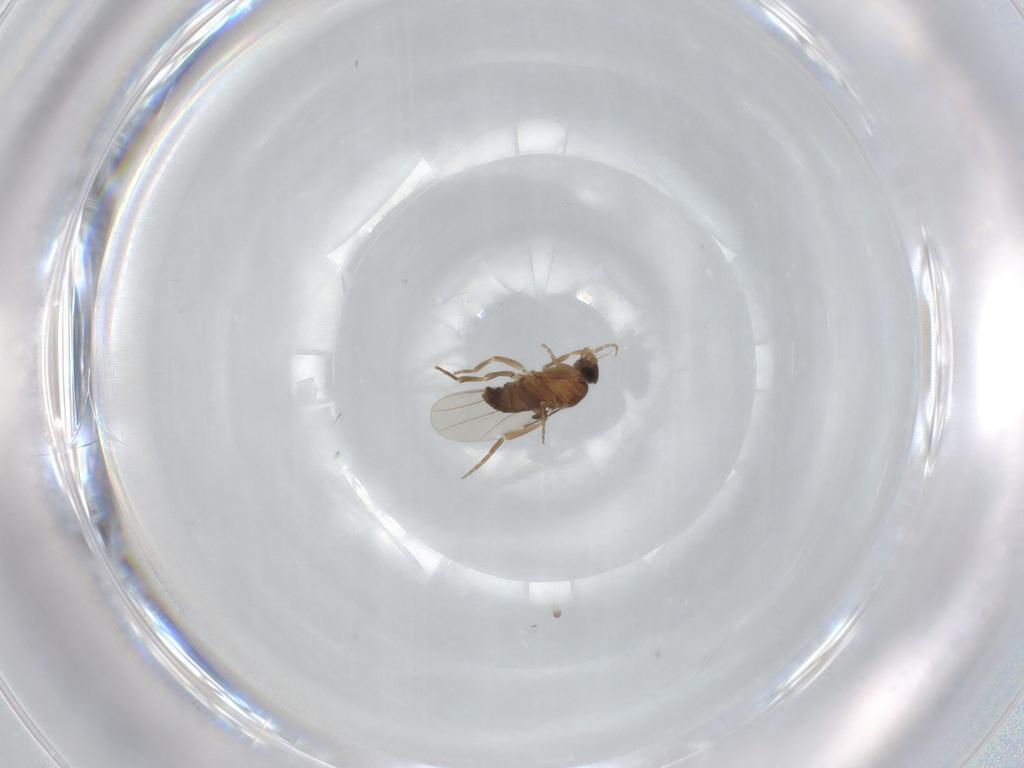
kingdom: Animalia
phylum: Arthropoda
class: Insecta
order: Diptera
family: Phoridae
